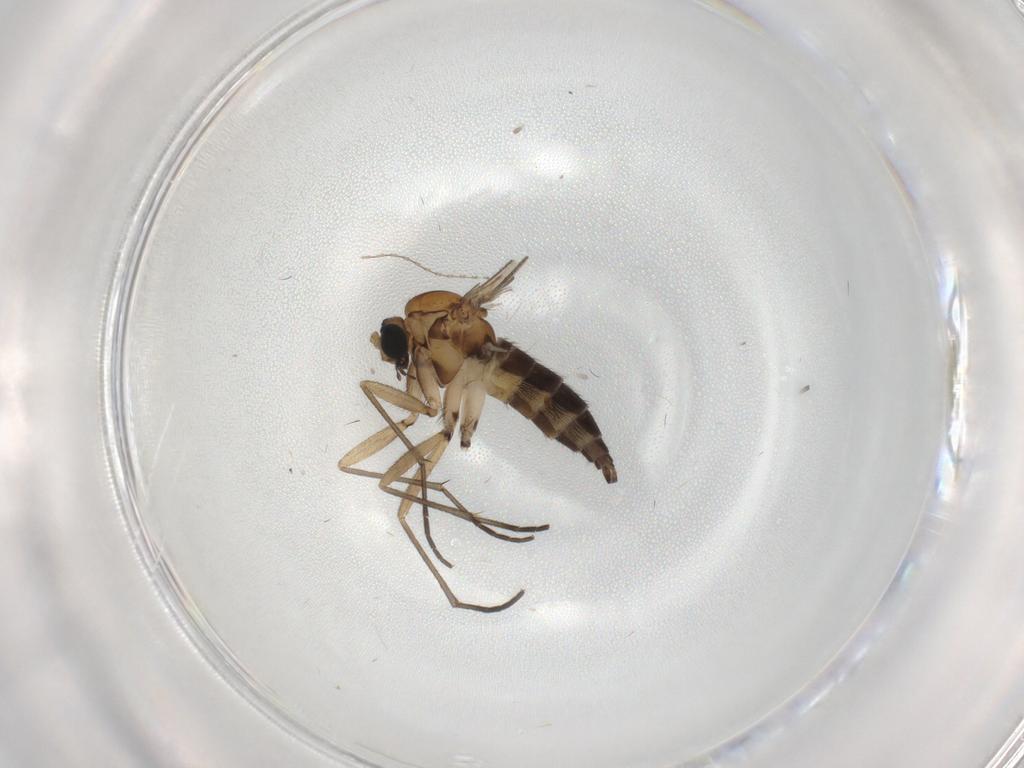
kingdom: Animalia
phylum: Arthropoda
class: Insecta
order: Diptera
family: Sciaridae
